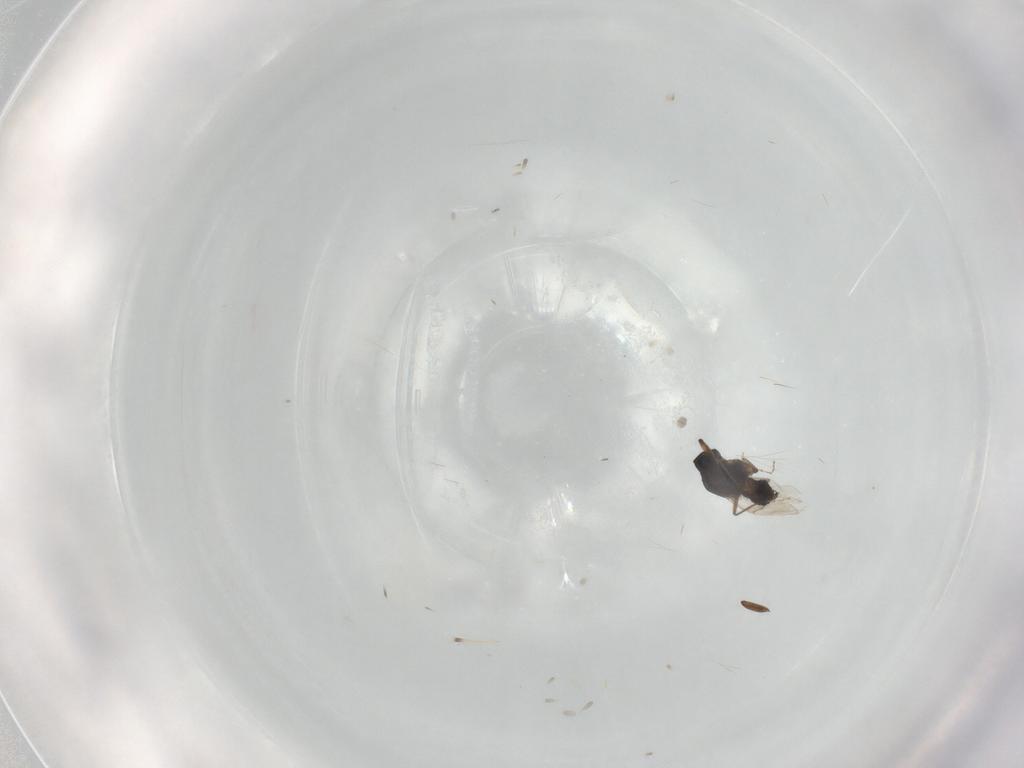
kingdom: Animalia
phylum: Arthropoda
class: Insecta
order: Diptera
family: Ceratopogonidae
